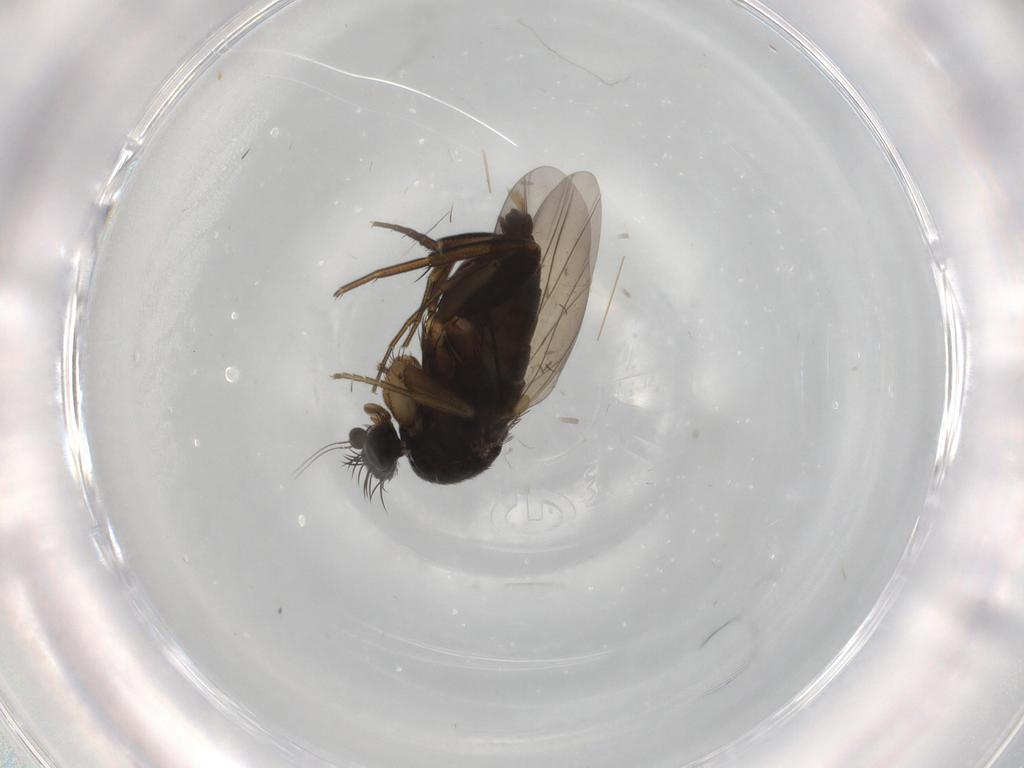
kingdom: Animalia
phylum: Arthropoda
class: Insecta
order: Diptera
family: Phoridae
